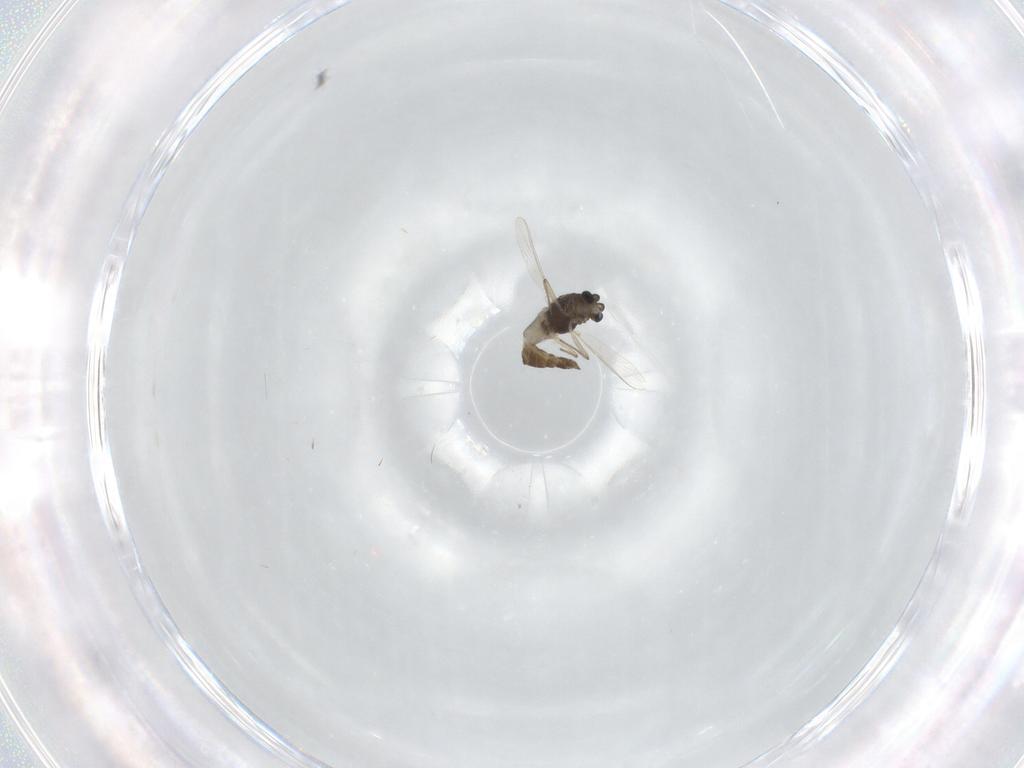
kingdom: Animalia
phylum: Arthropoda
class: Insecta
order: Diptera
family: Chironomidae
